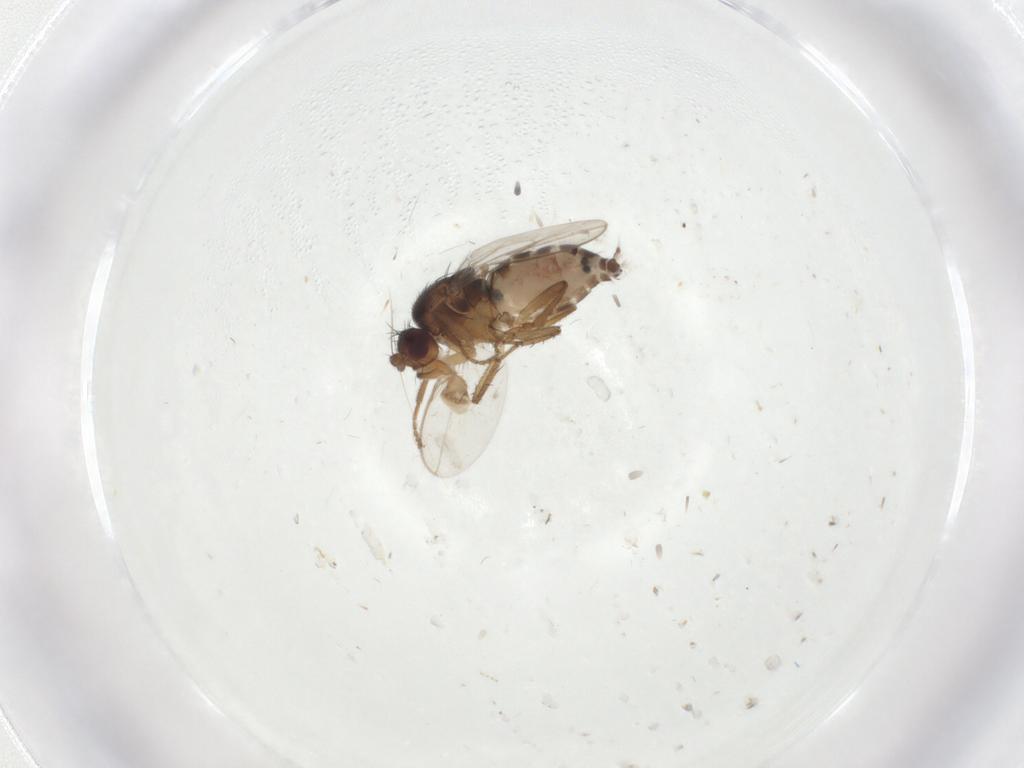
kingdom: Animalia
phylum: Arthropoda
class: Insecta
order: Diptera
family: Sphaeroceridae
